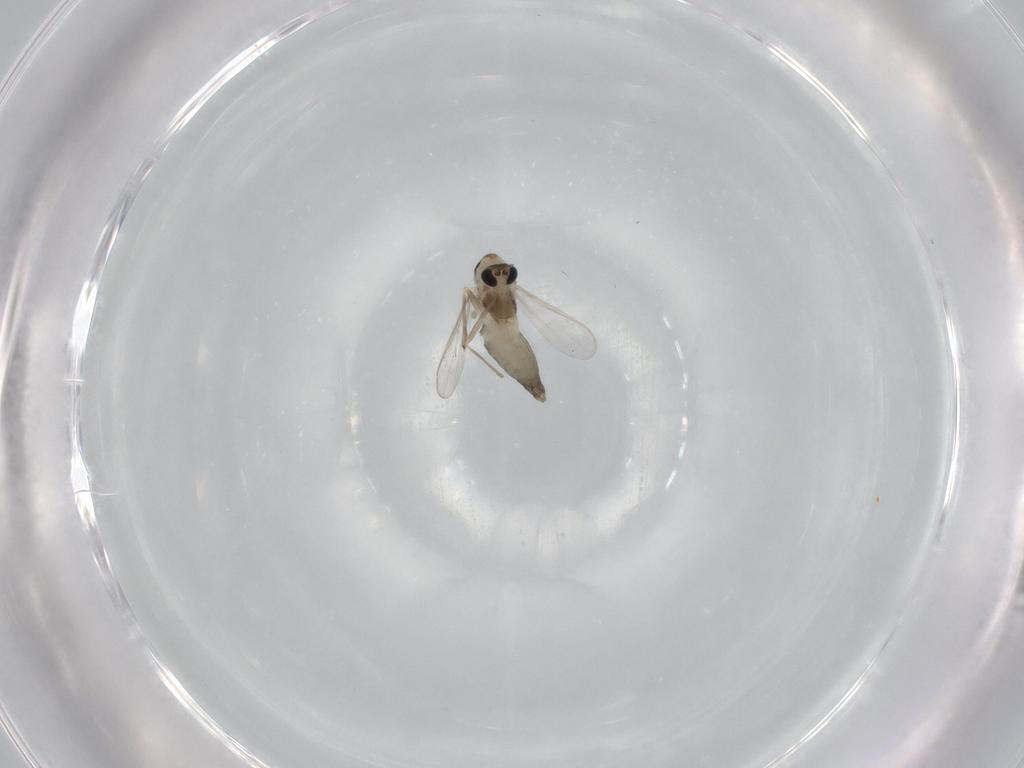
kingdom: Animalia
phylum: Arthropoda
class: Insecta
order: Diptera
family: Chironomidae
